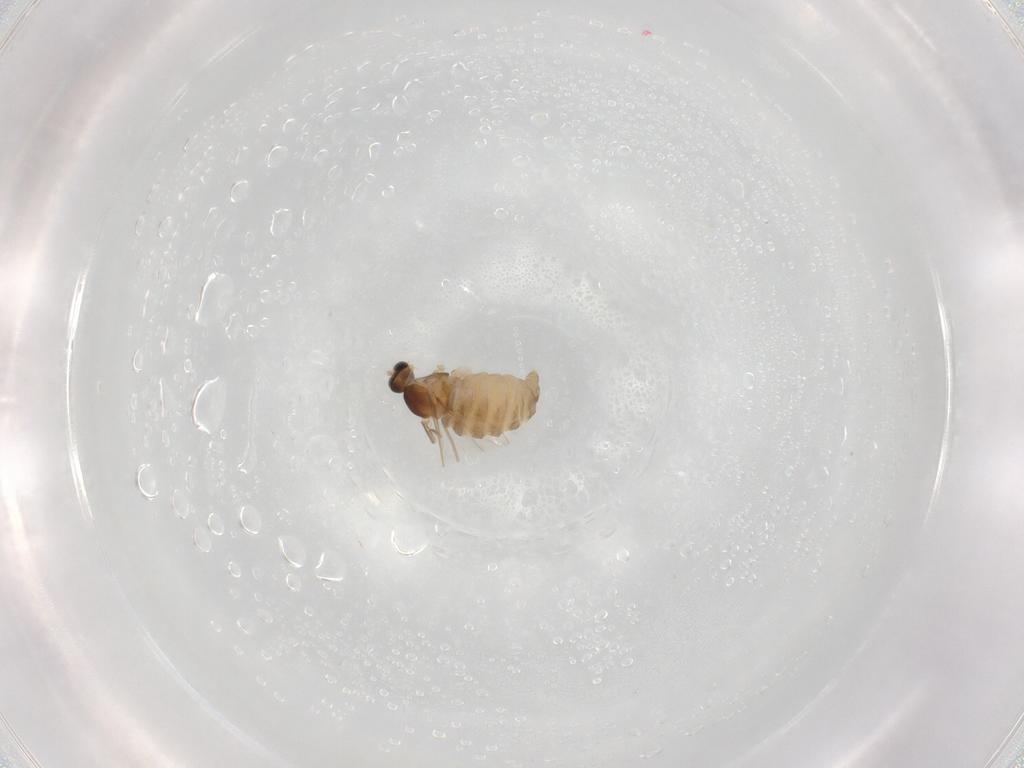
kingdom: Animalia
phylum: Arthropoda
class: Insecta
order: Diptera
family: Cecidomyiidae
